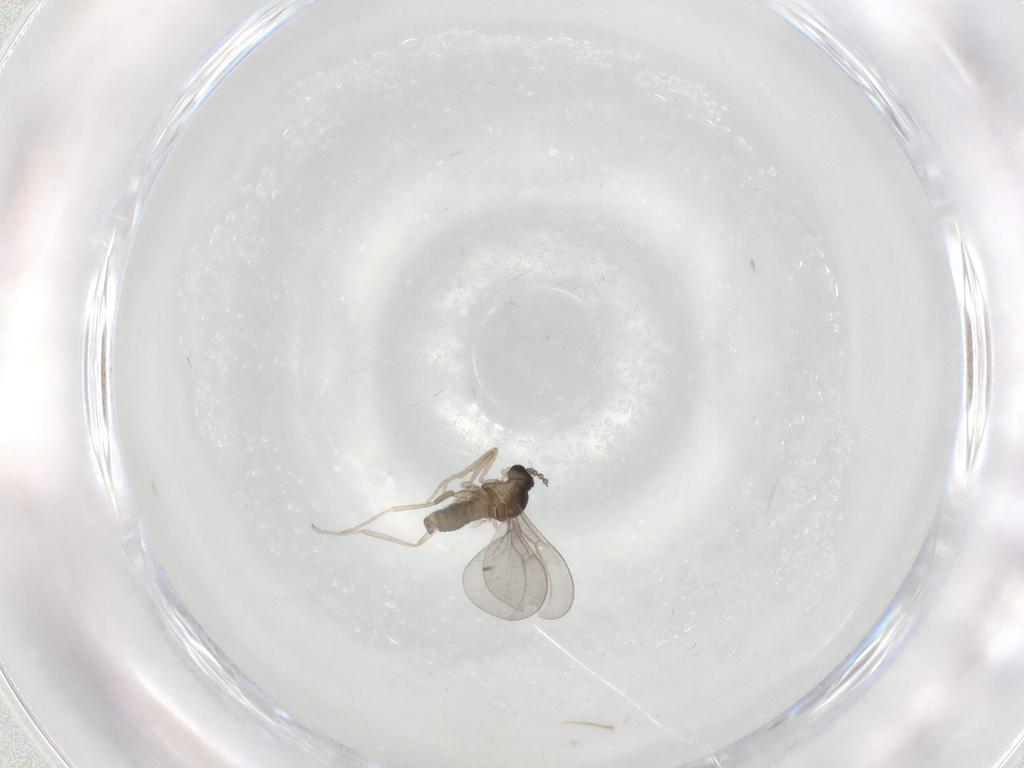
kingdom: Animalia
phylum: Arthropoda
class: Insecta
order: Diptera
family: Cecidomyiidae
